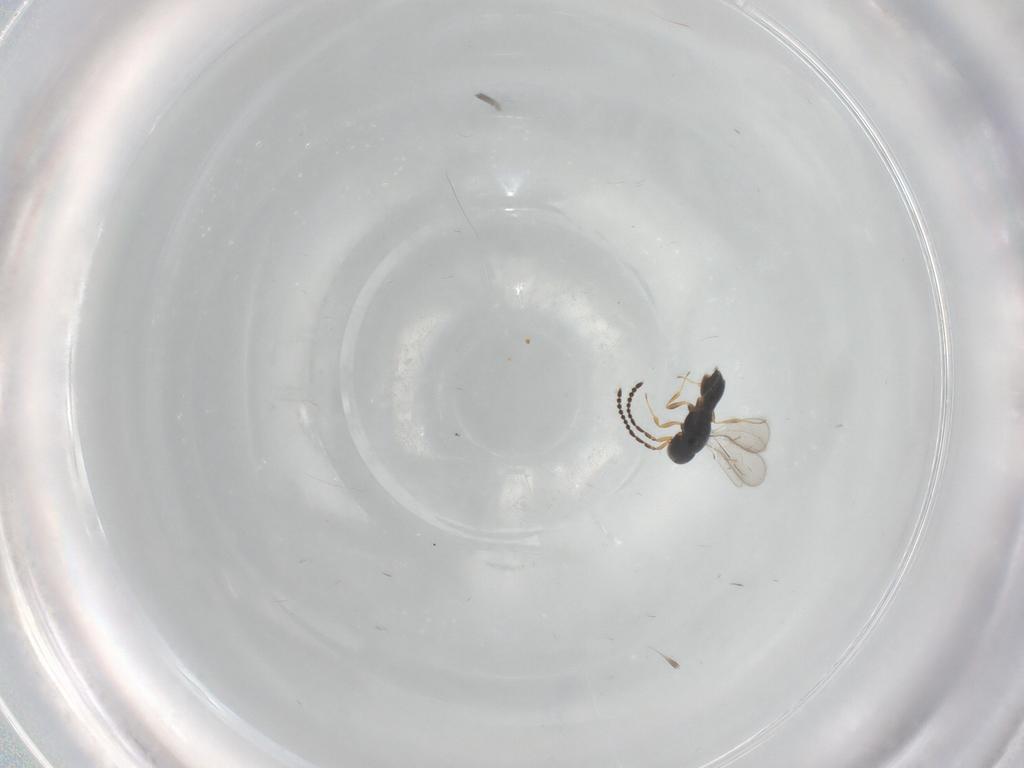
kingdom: Animalia
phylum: Arthropoda
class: Insecta
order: Hymenoptera
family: Scelionidae
